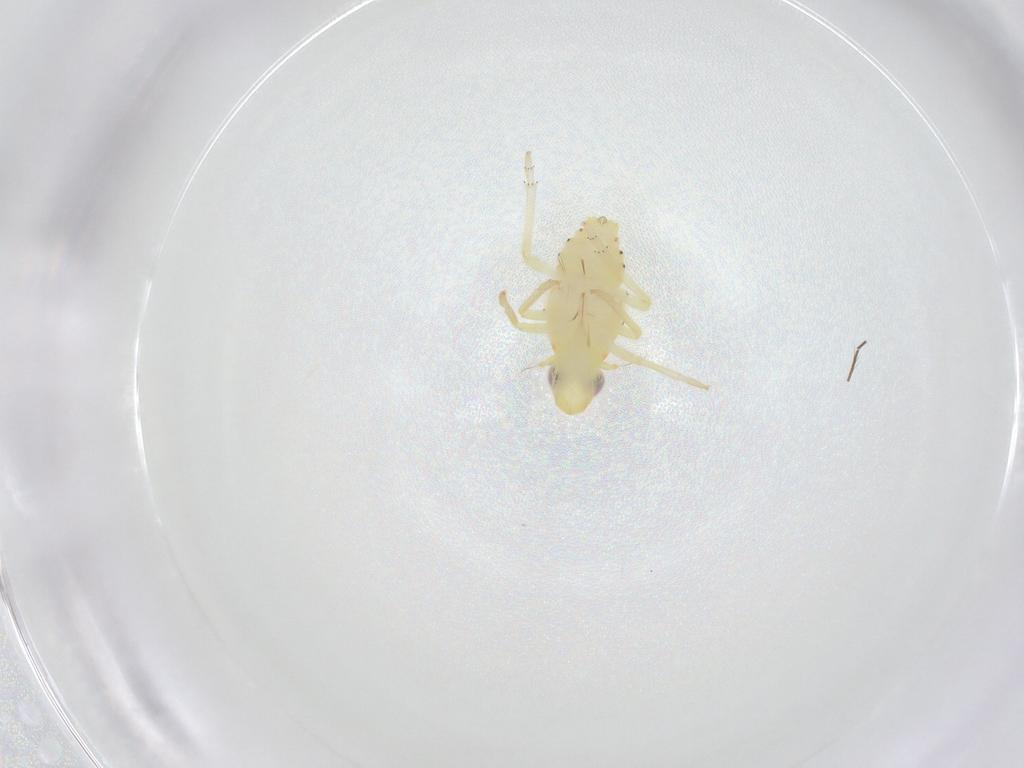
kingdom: Animalia
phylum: Arthropoda
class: Insecta
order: Hemiptera
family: Tropiduchidae
